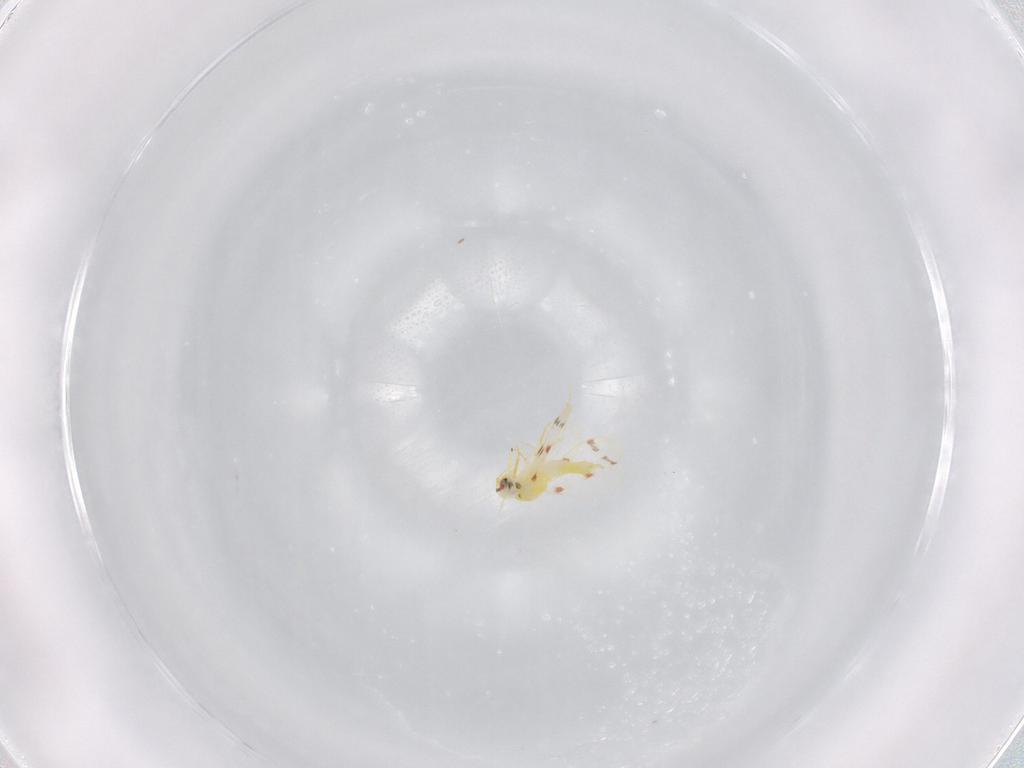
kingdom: Animalia
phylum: Arthropoda
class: Insecta
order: Hemiptera
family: Aleyrodidae
